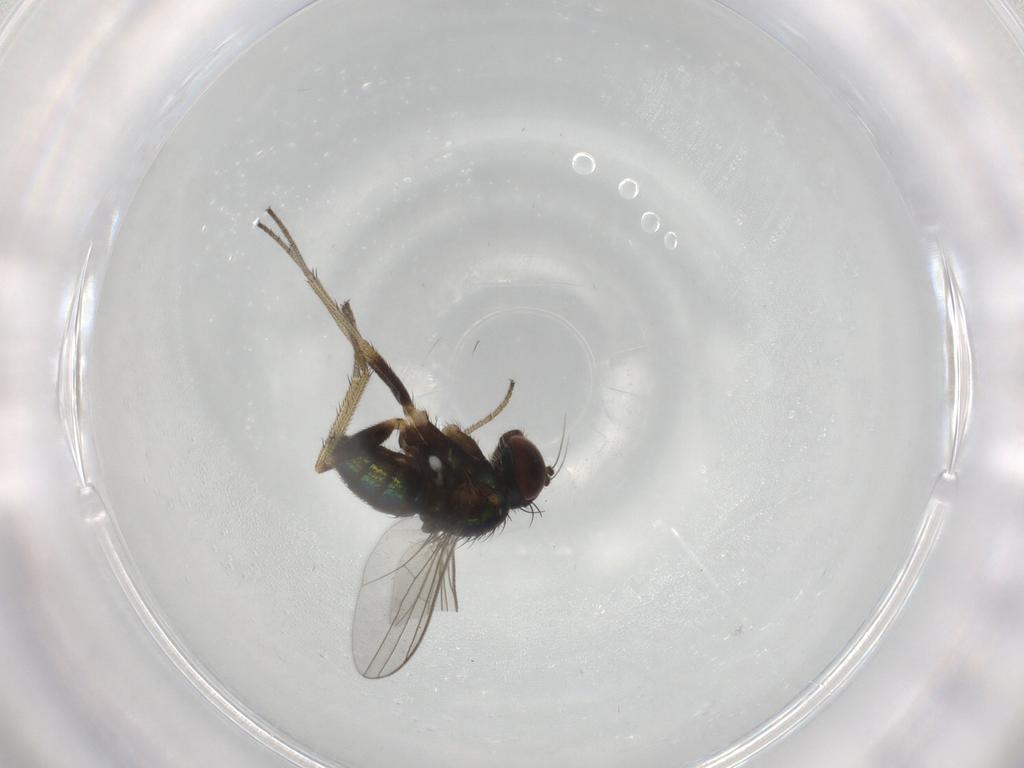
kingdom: Animalia
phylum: Arthropoda
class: Insecta
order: Diptera
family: Dolichopodidae
